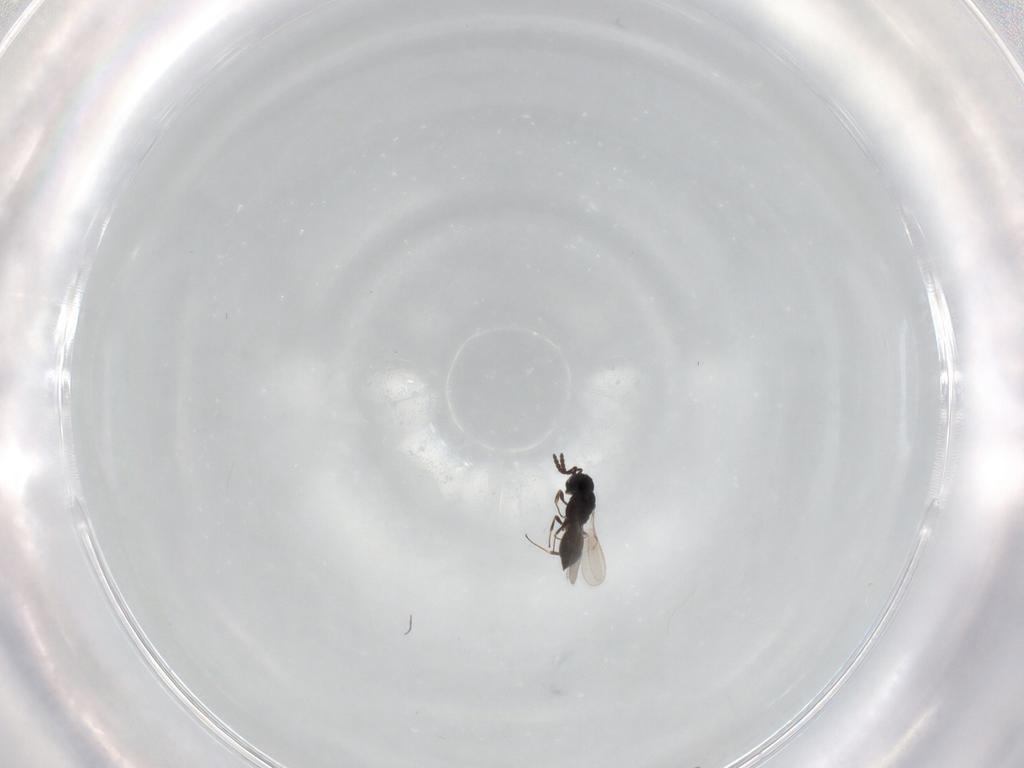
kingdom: Animalia
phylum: Arthropoda
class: Insecta
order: Hymenoptera
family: Scelionidae
